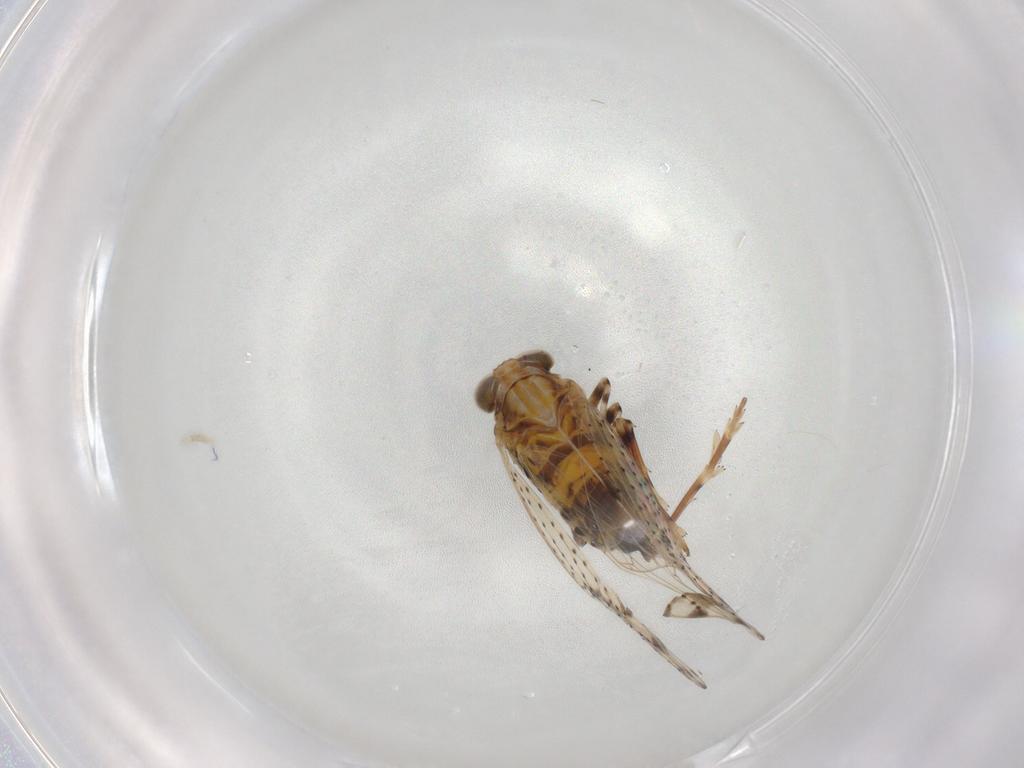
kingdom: Animalia
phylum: Arthropoda
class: Insecta
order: Hemiptera
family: Delphacidae
